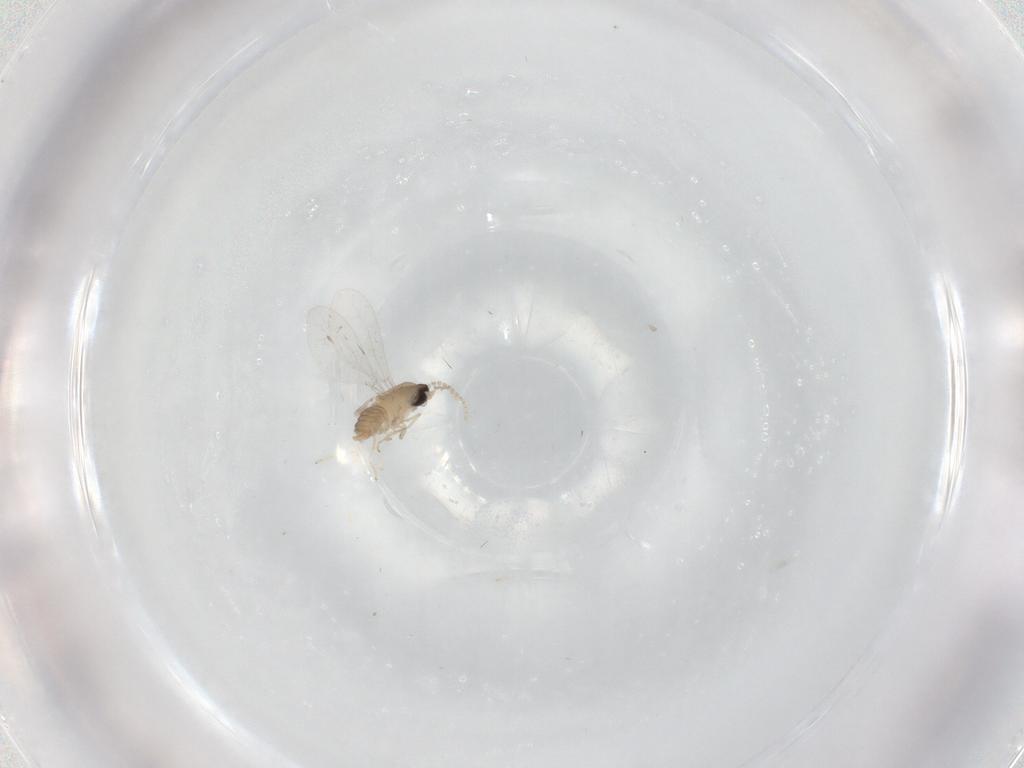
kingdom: Animalia
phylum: Arthropoda
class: Insecta
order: Diptera
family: Cecidomyiidae
